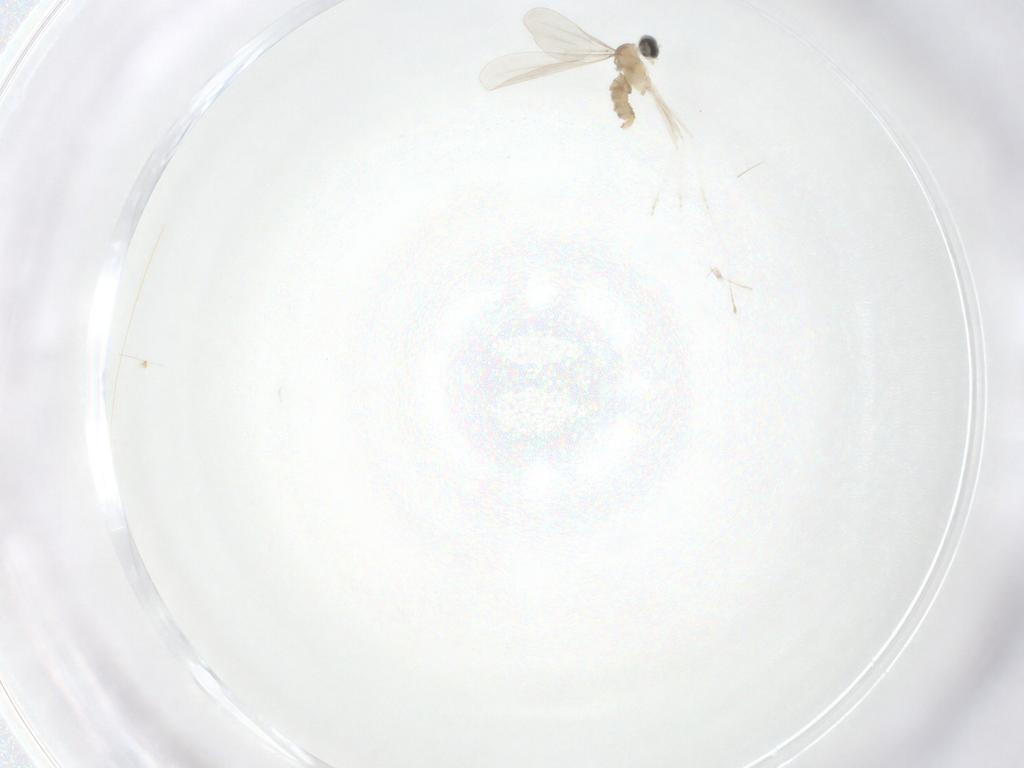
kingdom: Animalia
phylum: Arthropoda
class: Insecta
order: Diptera
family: Cecidomyiidae
